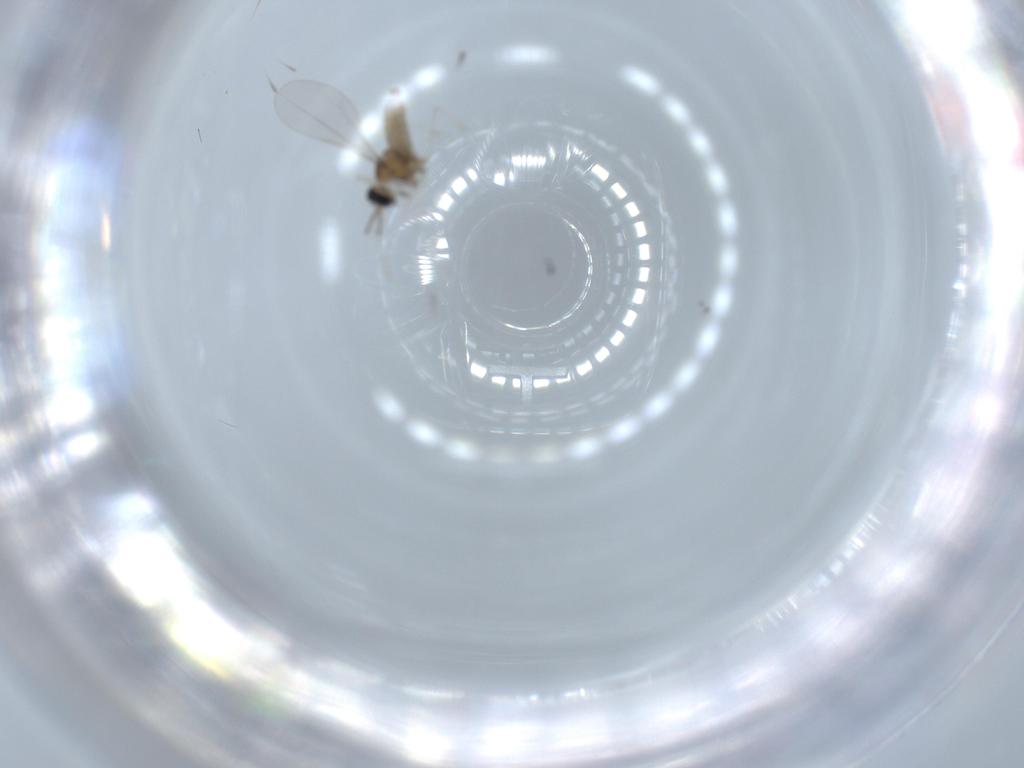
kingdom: Animalia
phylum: Arthropoda
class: Insecta
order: Diptera
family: Cecidomyiidae
